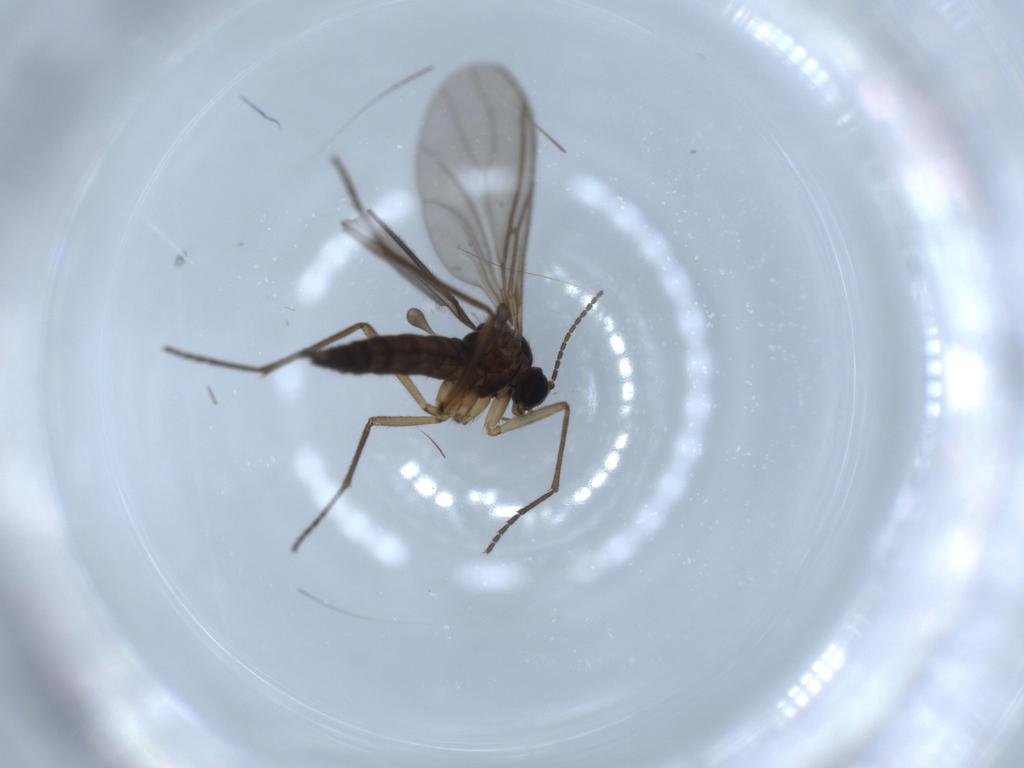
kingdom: Animalia
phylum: Arthropoda
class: Insecta
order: Diptera
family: Sciaridae
